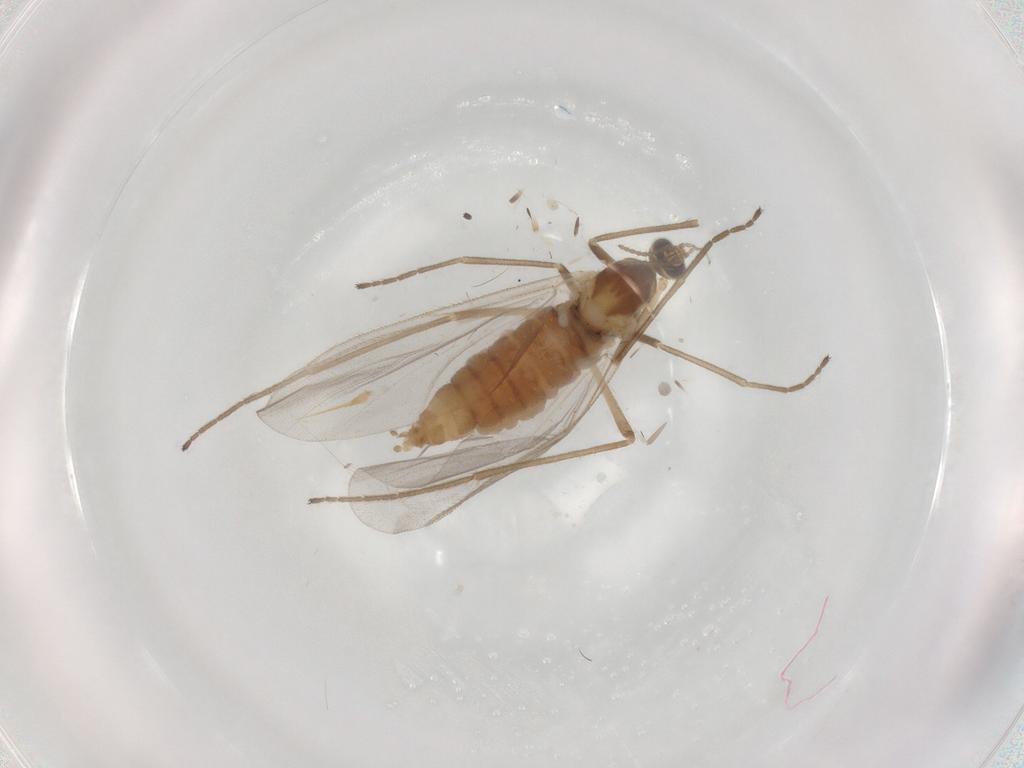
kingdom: Animalia
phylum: Arthropoda
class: Insecta
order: Diptera
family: Cecidomyiidae
